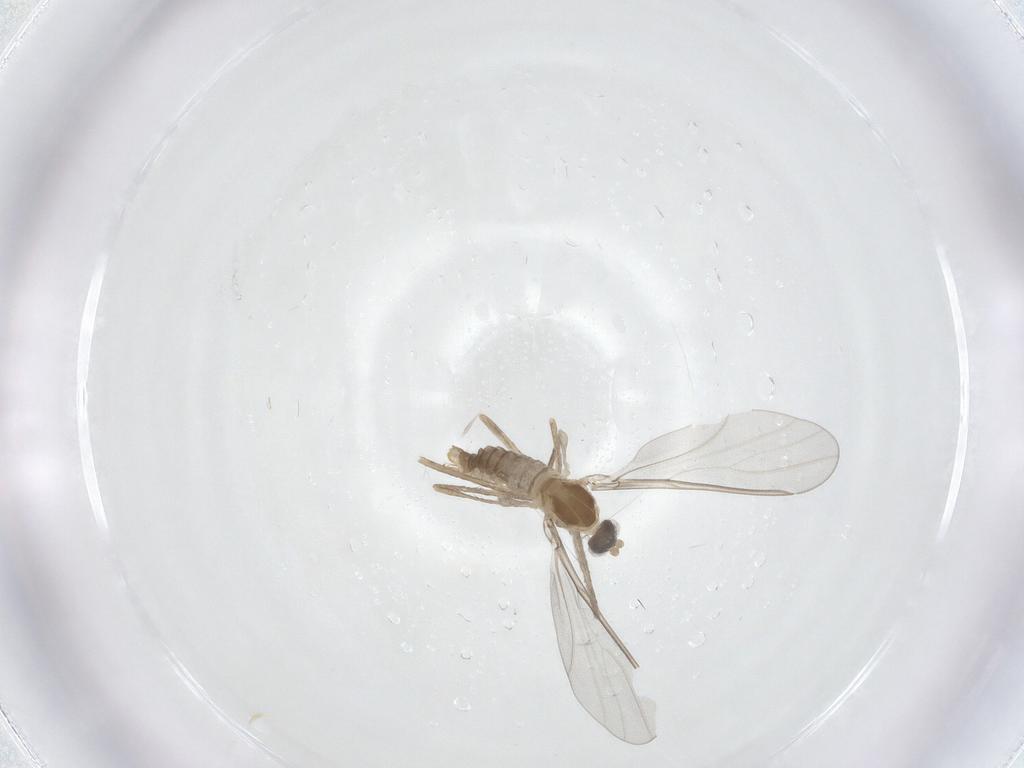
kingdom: Animalia
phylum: Arthropoda
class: Insecta
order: Diptera
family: Cecidomyiidae
